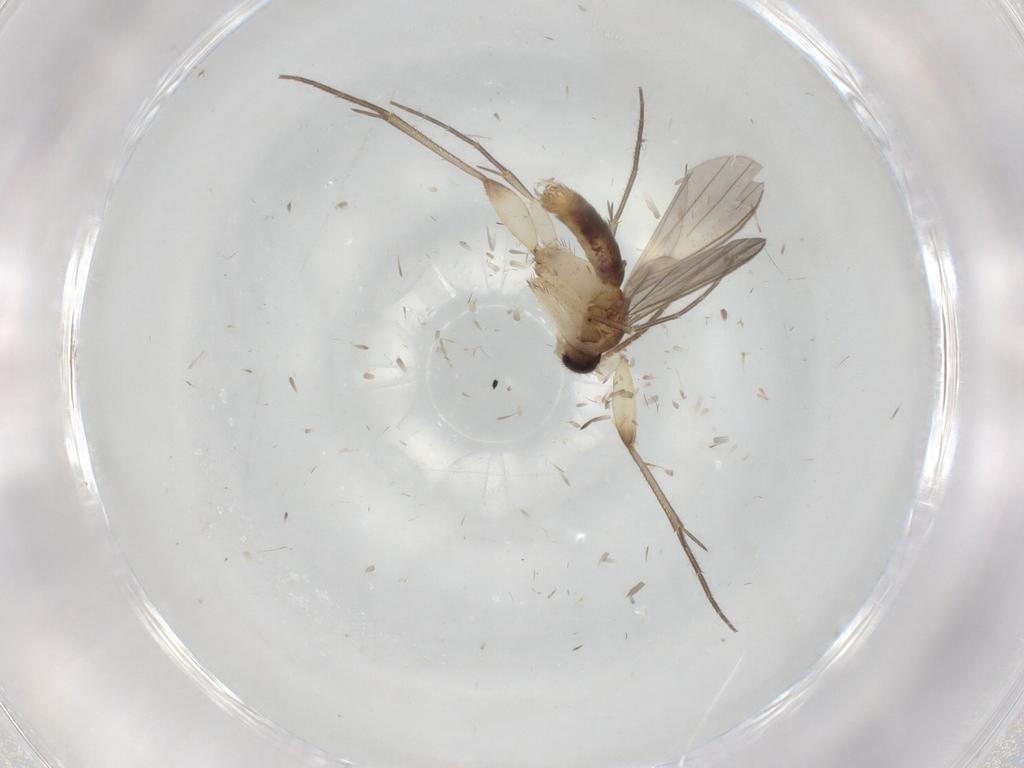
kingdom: Animalia
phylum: Arthropoda
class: Insecta
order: Diptera
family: Mycetophilidae
